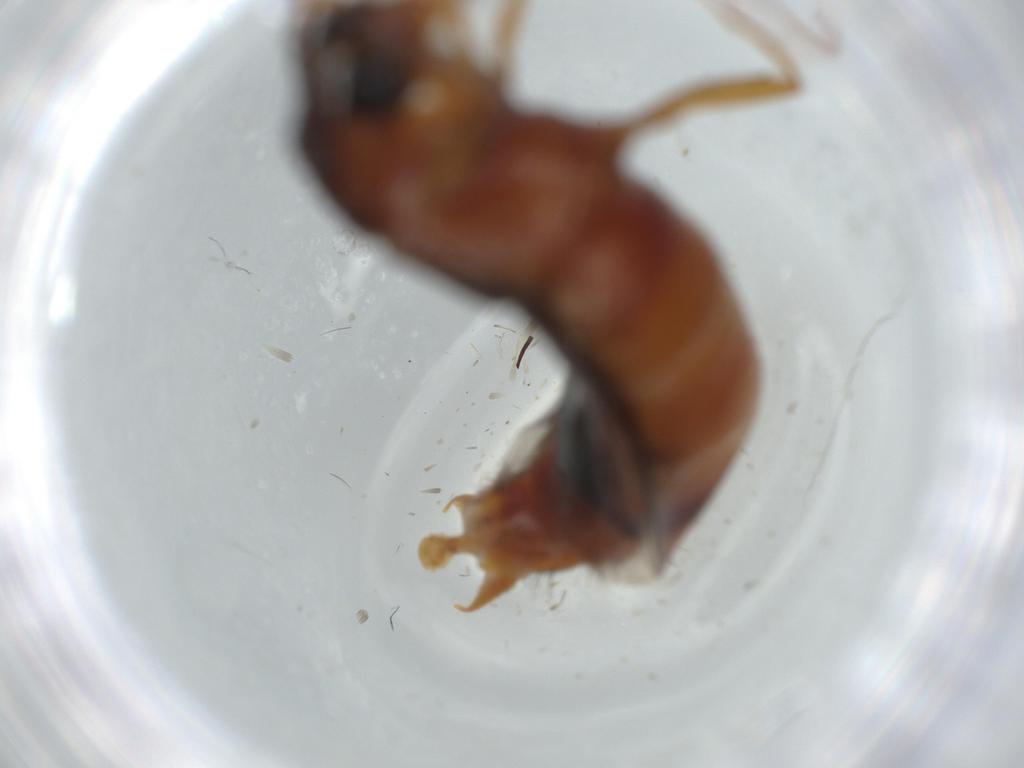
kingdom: Animalia
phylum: Arthropoda
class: Insecta
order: Coleoptera
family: Staphylinidae
